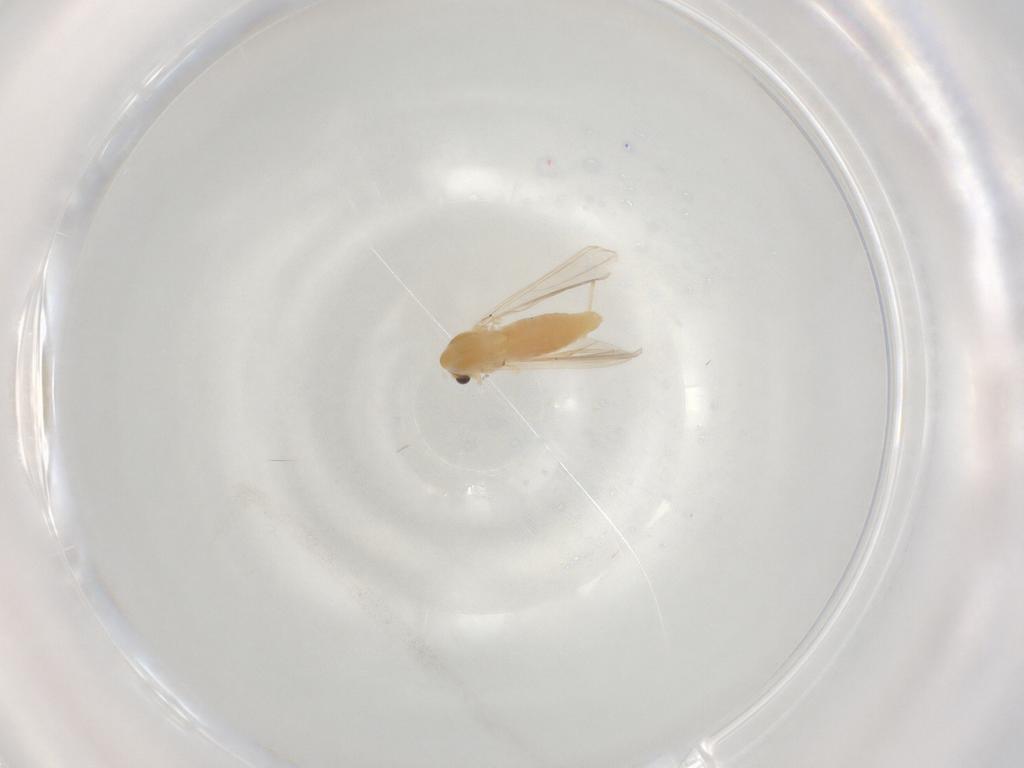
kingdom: Animalia
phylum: Arthropoda
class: Insecta
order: Diptera
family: Chironomidae
